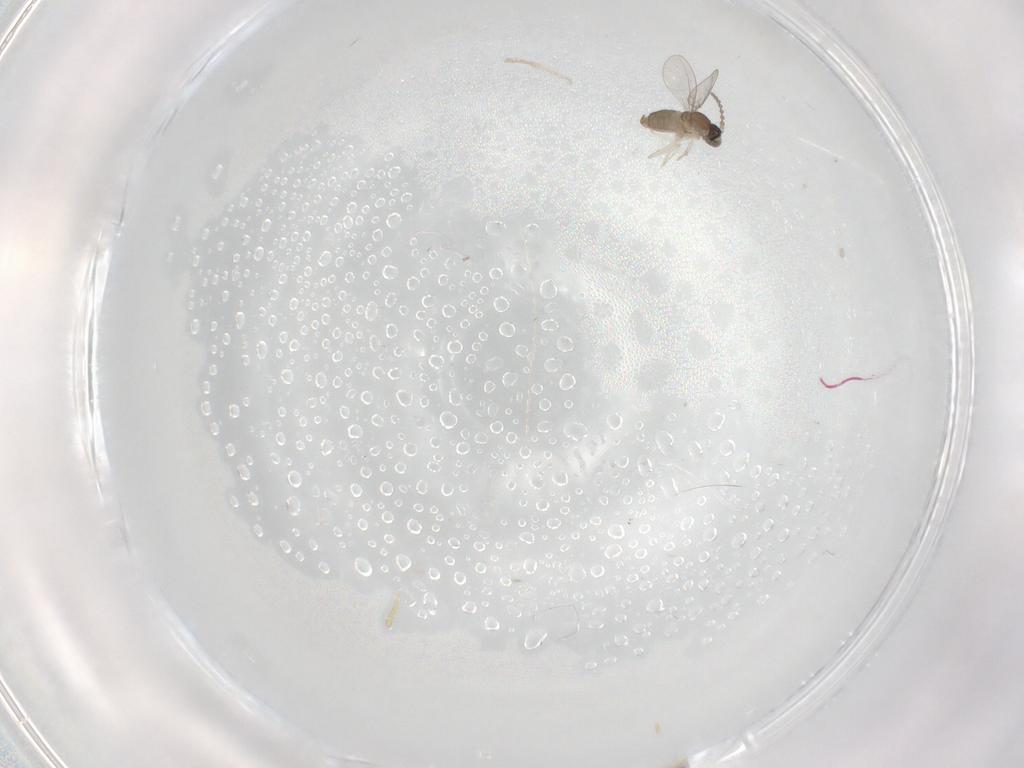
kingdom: Animalia
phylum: Arthropoda
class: Insecta
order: Diptera
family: Cecidomyiidae
